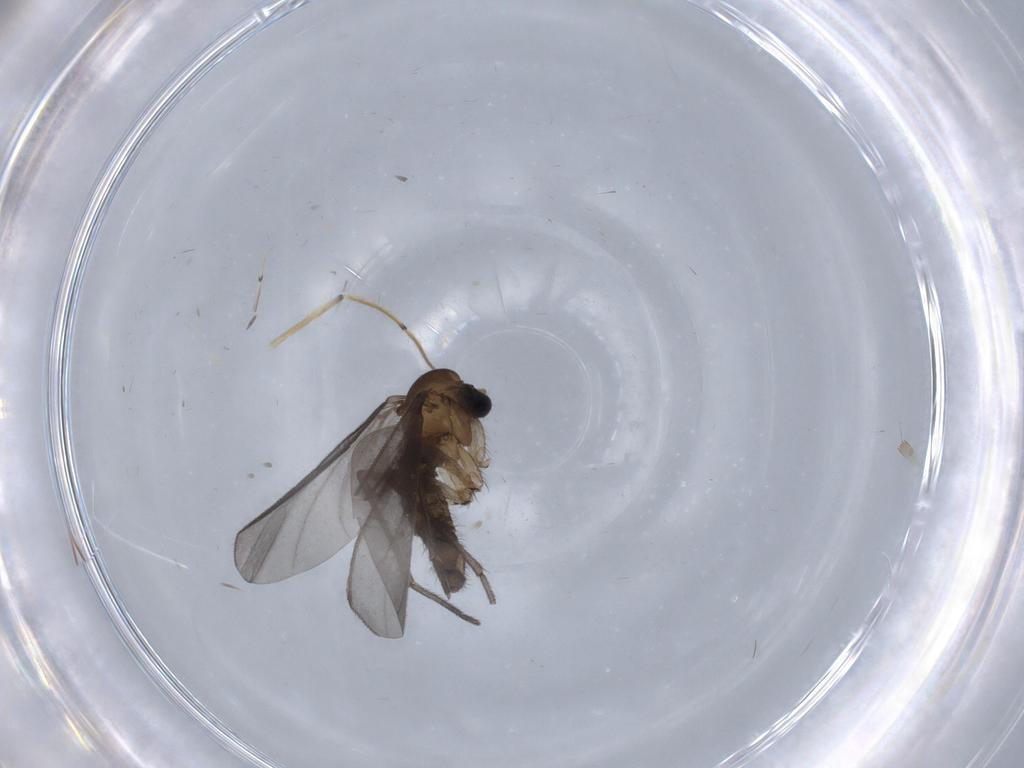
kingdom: Animalia
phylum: Arthropoda
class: Insecta
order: Diptera
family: Sciaridae
